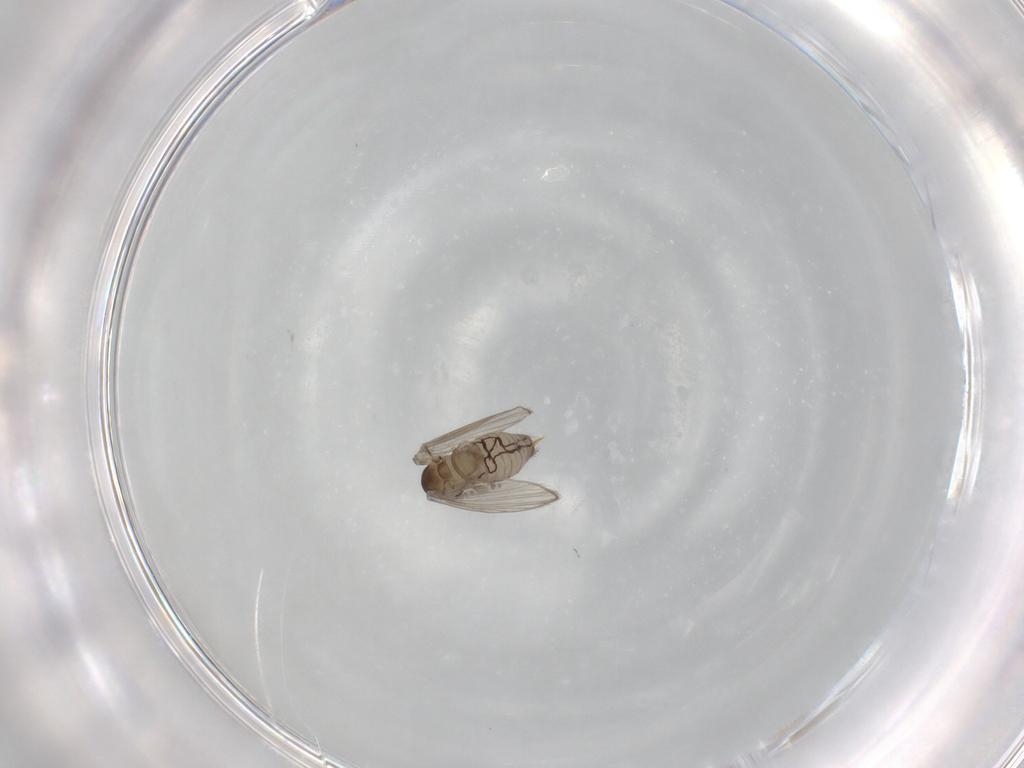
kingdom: Animalia
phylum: Arthropoda
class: Insecta
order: Diptera
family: Psychodidae
